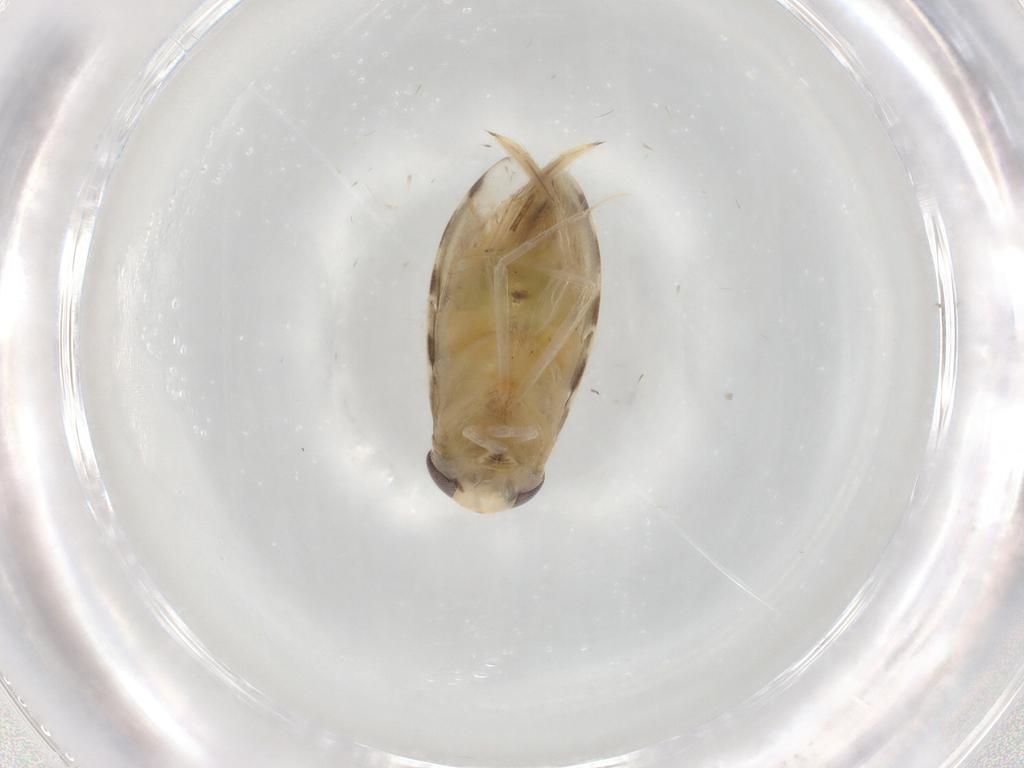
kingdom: Animalia
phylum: Arthropoda
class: Insecta
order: Hemiptera
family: Corixidae
